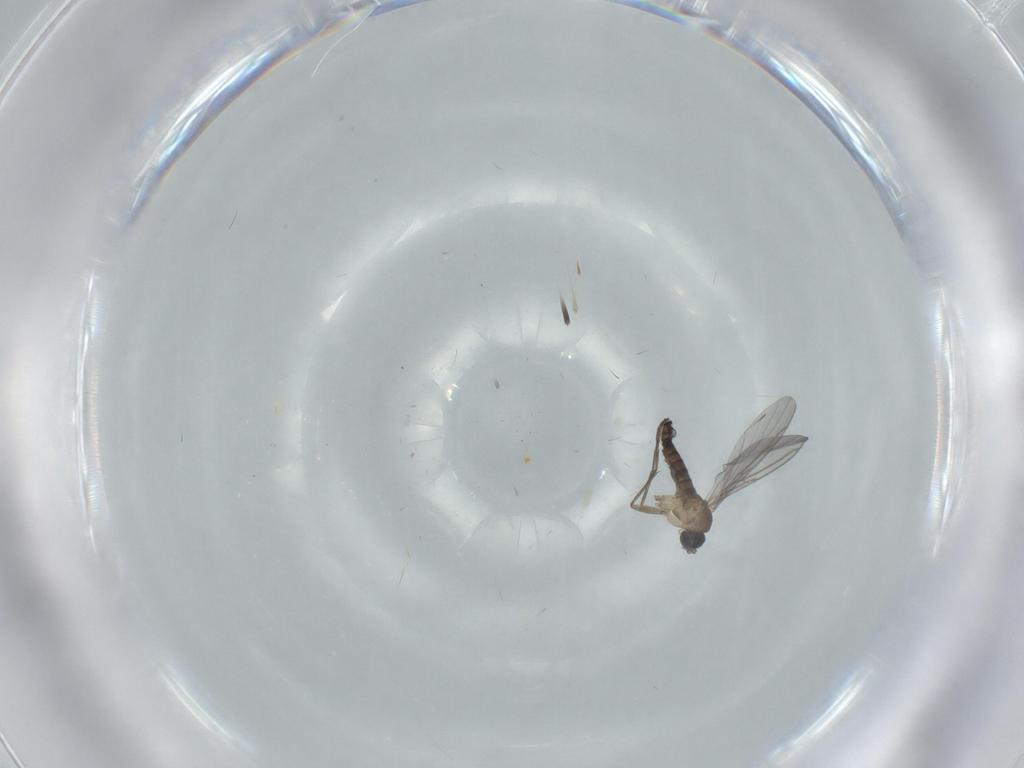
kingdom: Animalia
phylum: Arthropoda
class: Insecta
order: Diptera
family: Sciaridae
